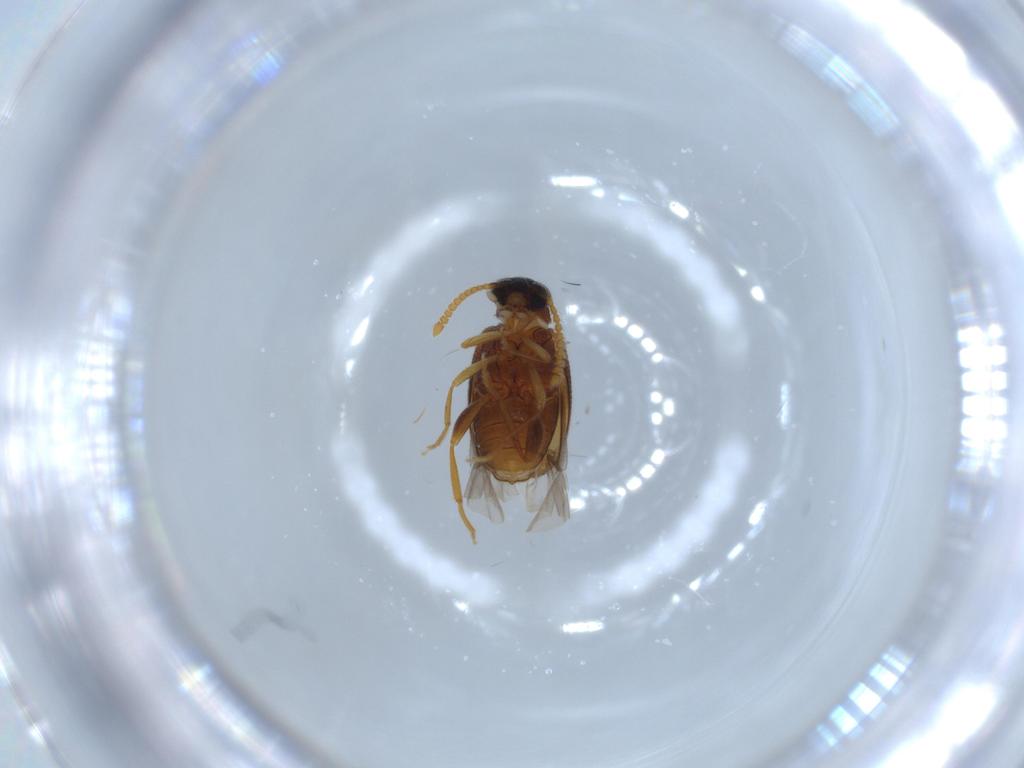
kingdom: Animalia
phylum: Arthropoda
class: Insecta
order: Coleoptera
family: Aderidae
